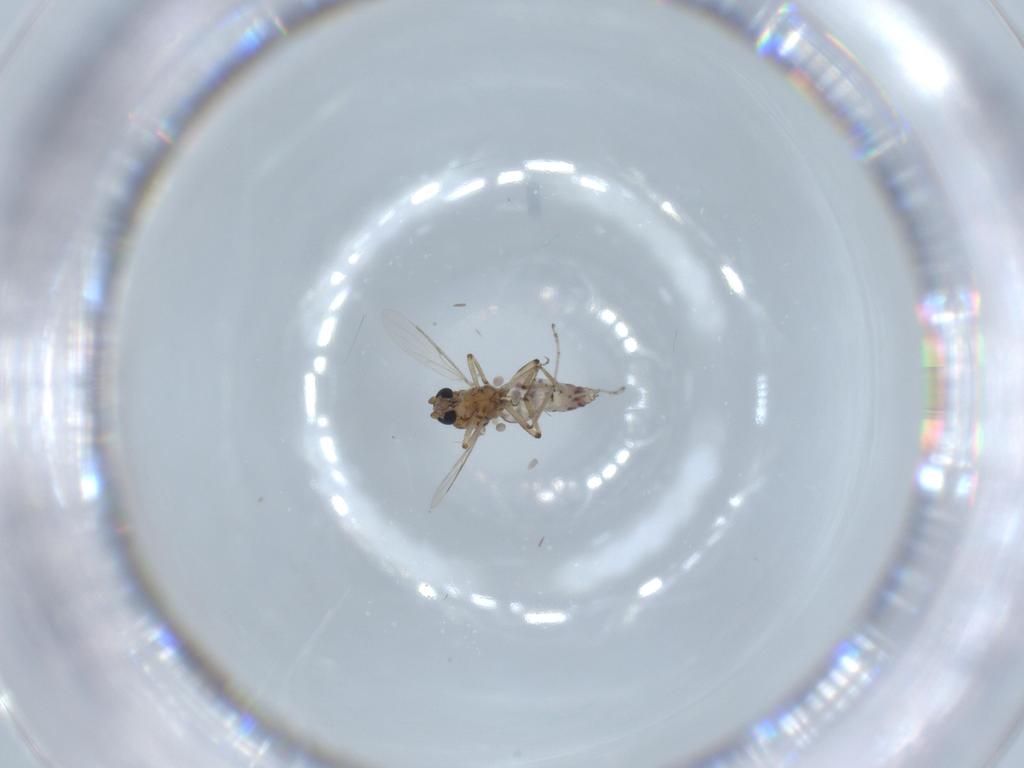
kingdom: Animalia
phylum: Arthropoda
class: Insecta
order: Diptera
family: Ceratopogonidae
